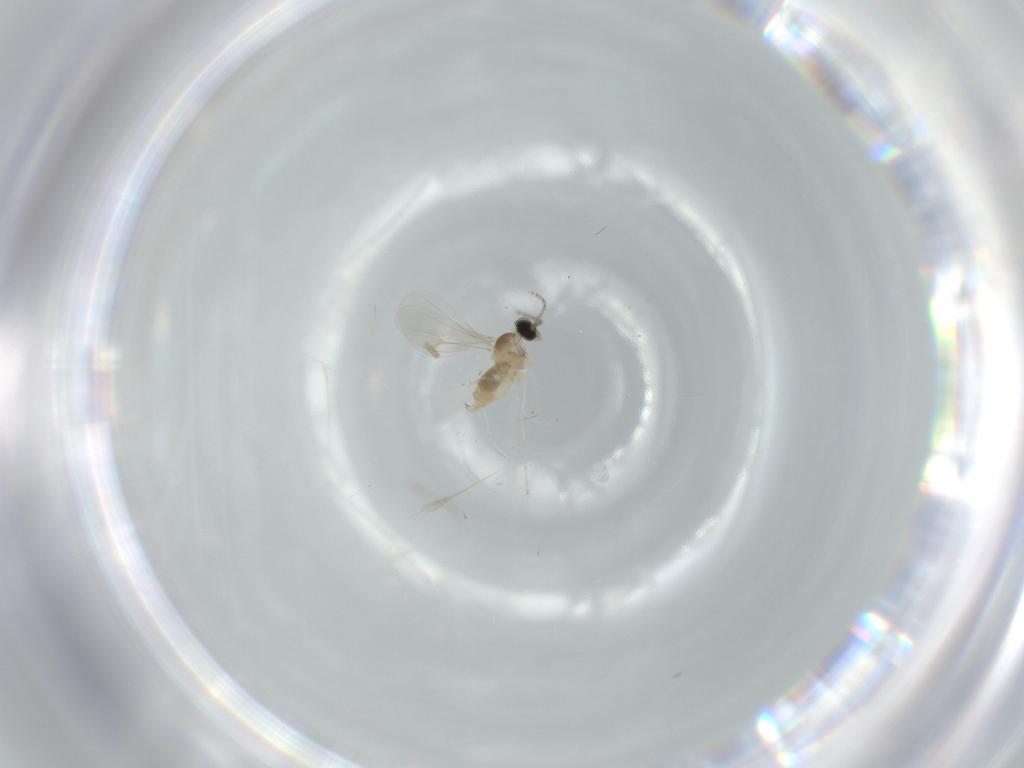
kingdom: Animalia
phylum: Arthropoda
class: Insecta
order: Diptera
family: Cecidomyiidae
